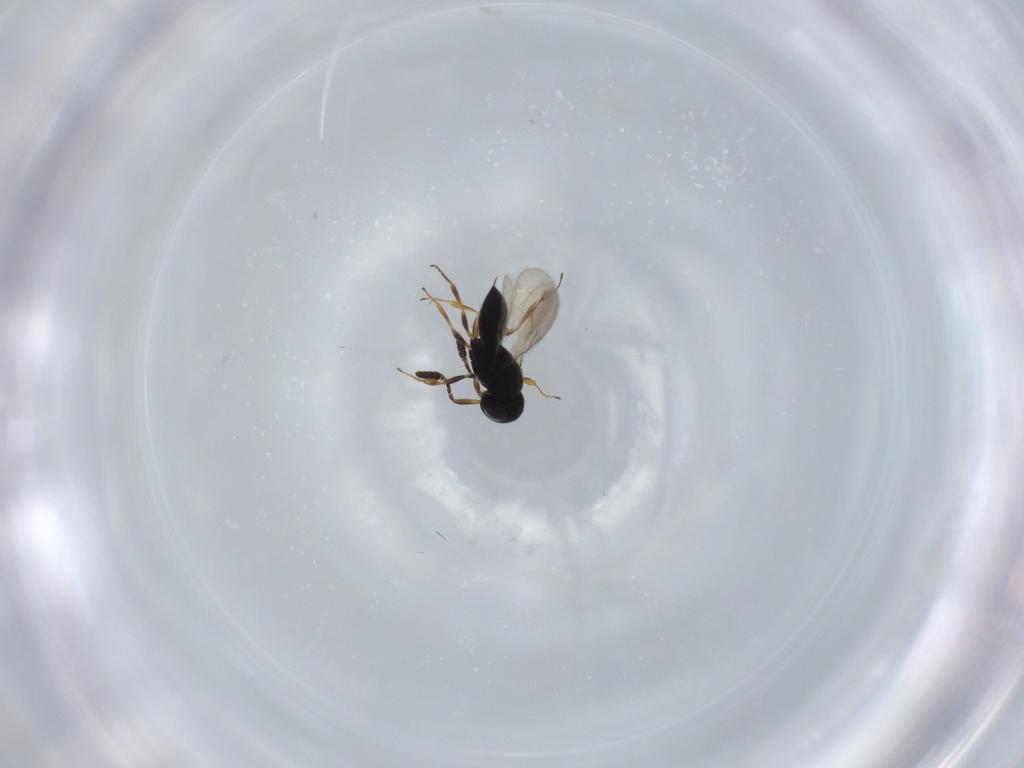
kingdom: Animalia
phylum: Arthropoda
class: Insecta
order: Hymenoptera
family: Scelionidae
